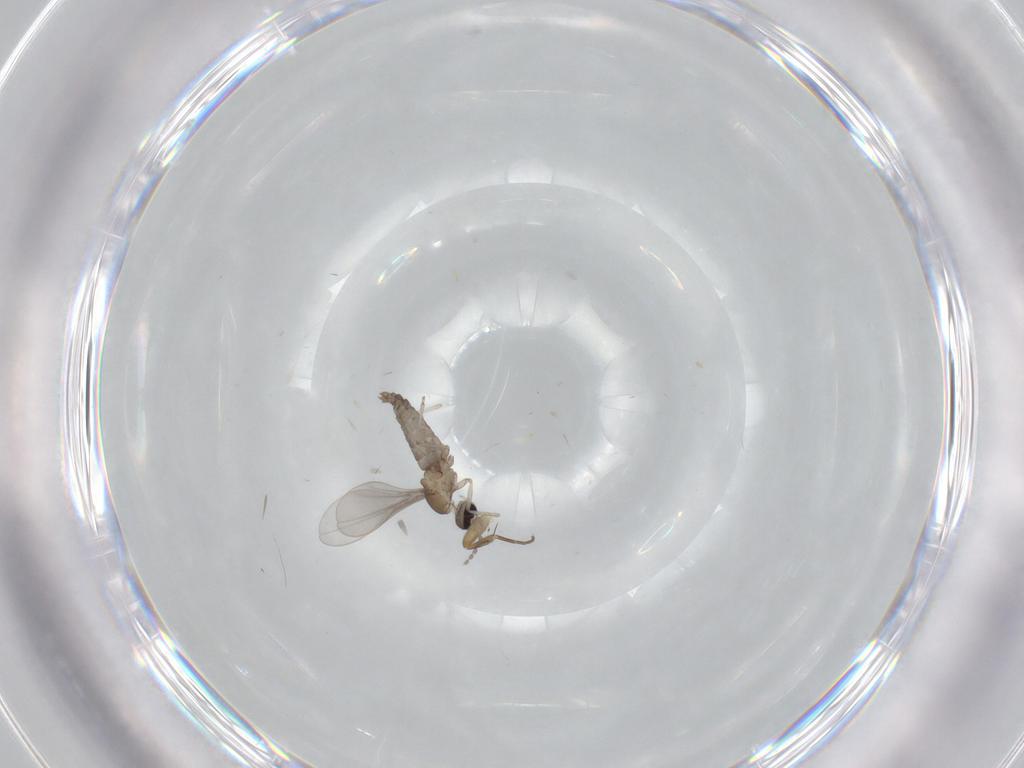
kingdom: Animalia
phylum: Arthropoda
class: Insecta
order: Diptera
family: Cecidomyiidae
